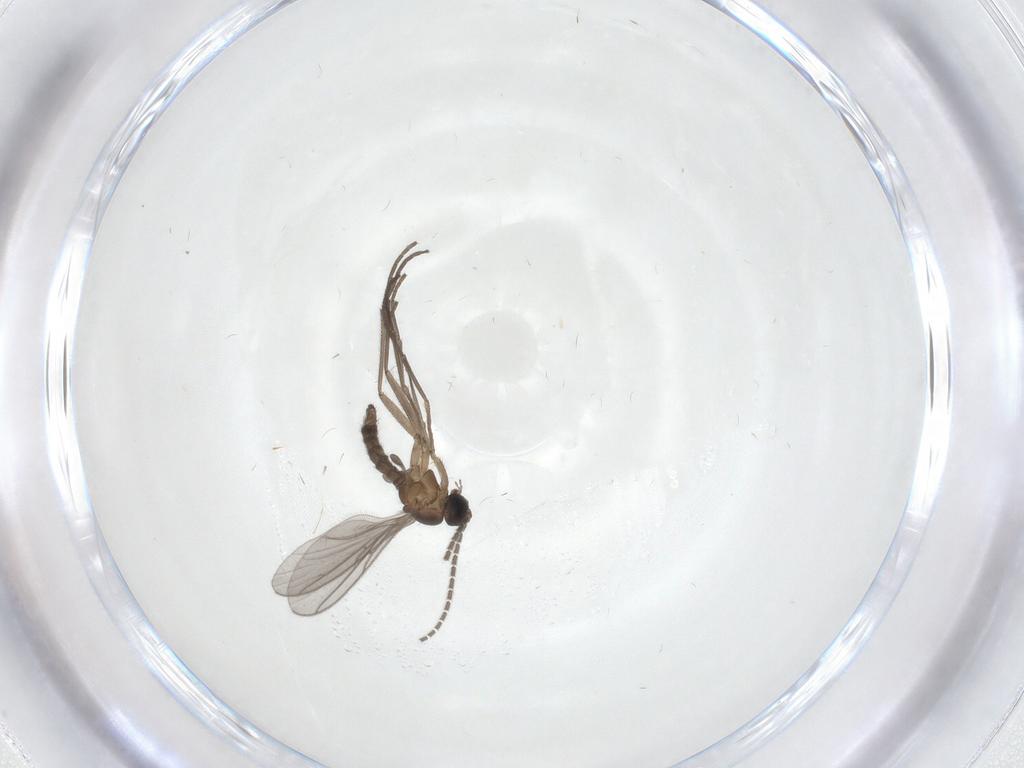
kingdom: Animalia
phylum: Arthropoda
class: Insecta
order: Diptera
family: Sciaridae
